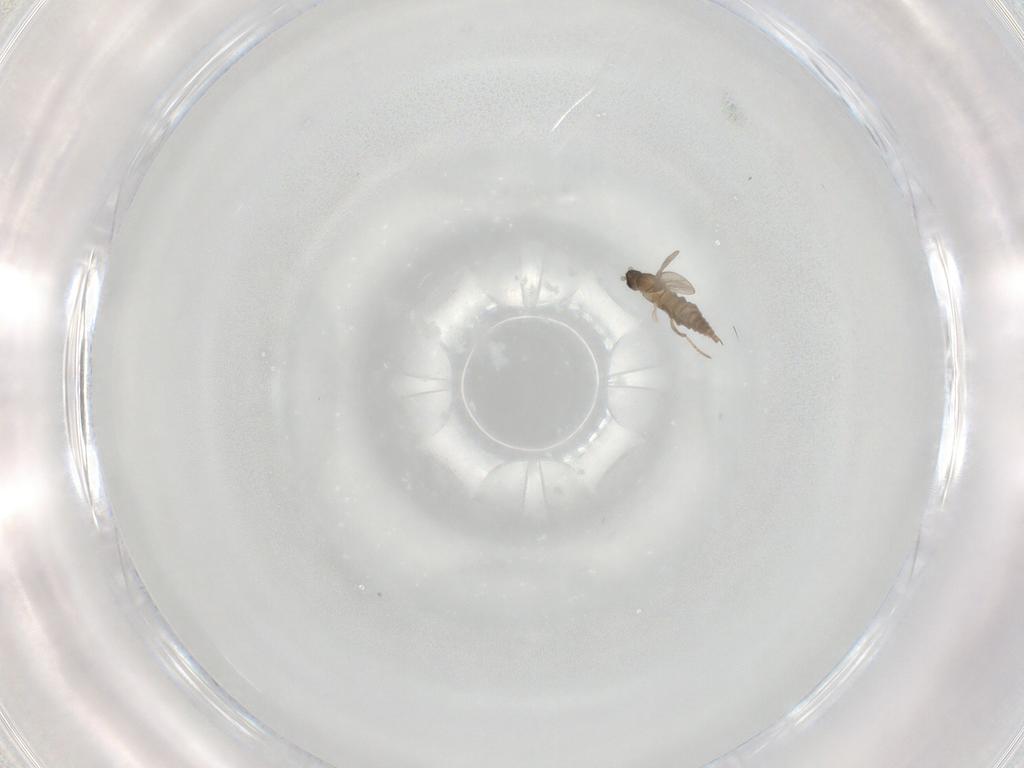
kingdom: Animalia
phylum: Arthropoda
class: Insecta
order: Diptera
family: Cecidomyiidae
